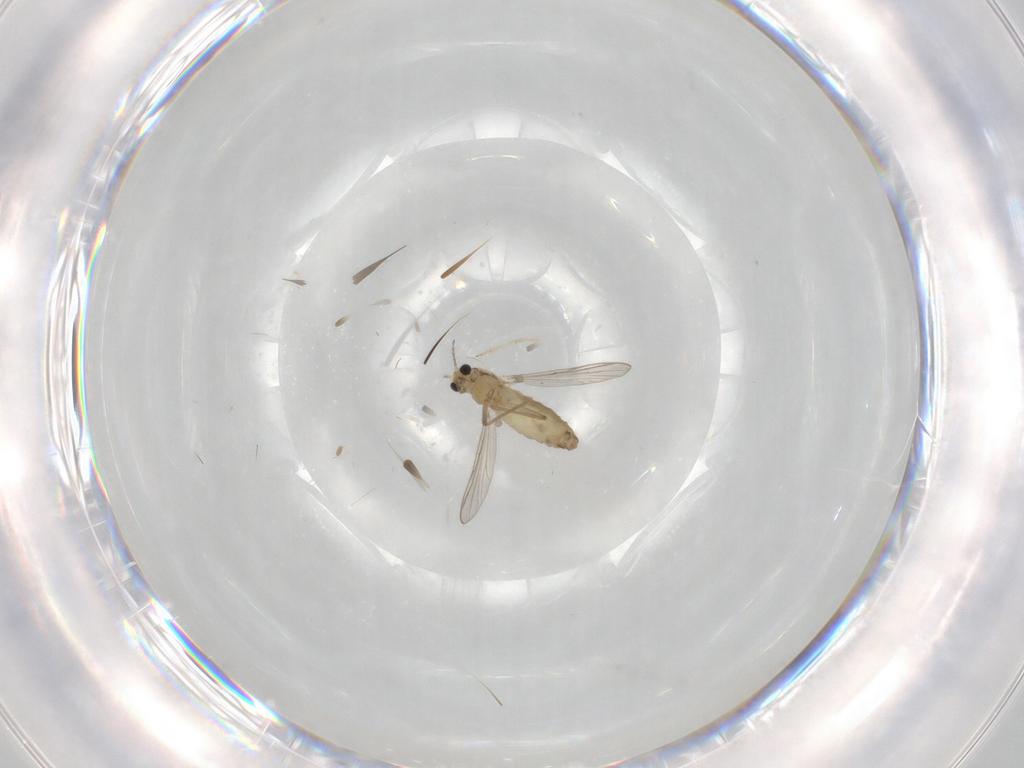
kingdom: Animalia
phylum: Arthropoda
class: Insecta
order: Diptera
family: Chironomidae
